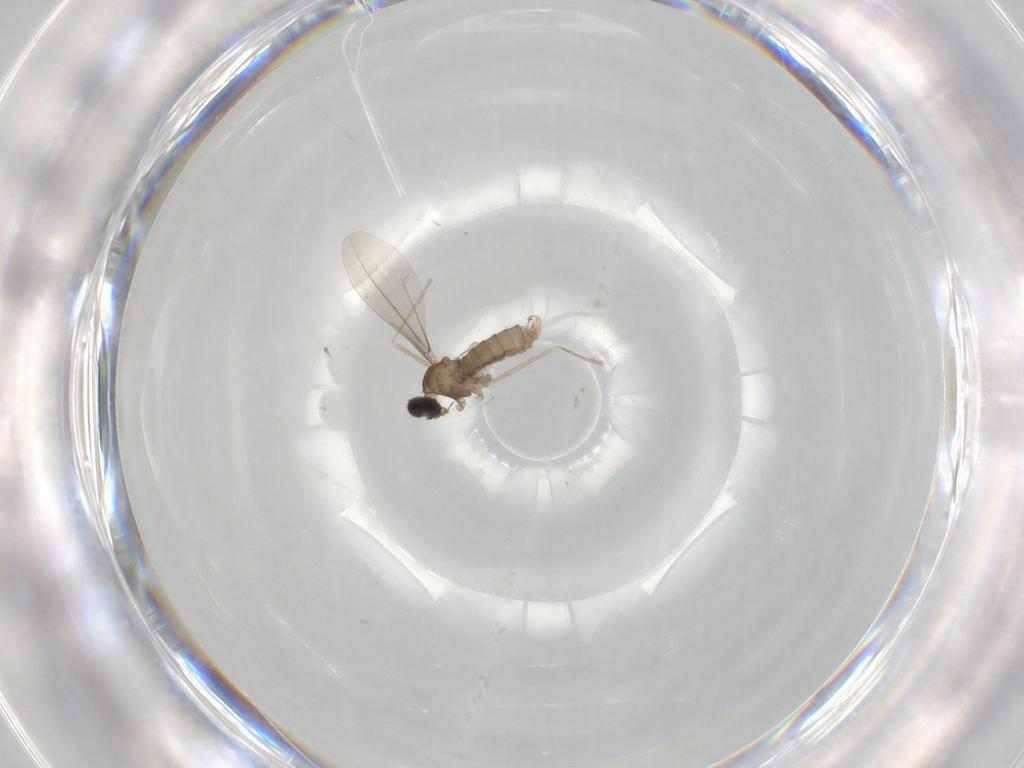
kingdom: Animalia
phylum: Arthropoda
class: Insecta
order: Diptera
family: Cecidomyiidae
